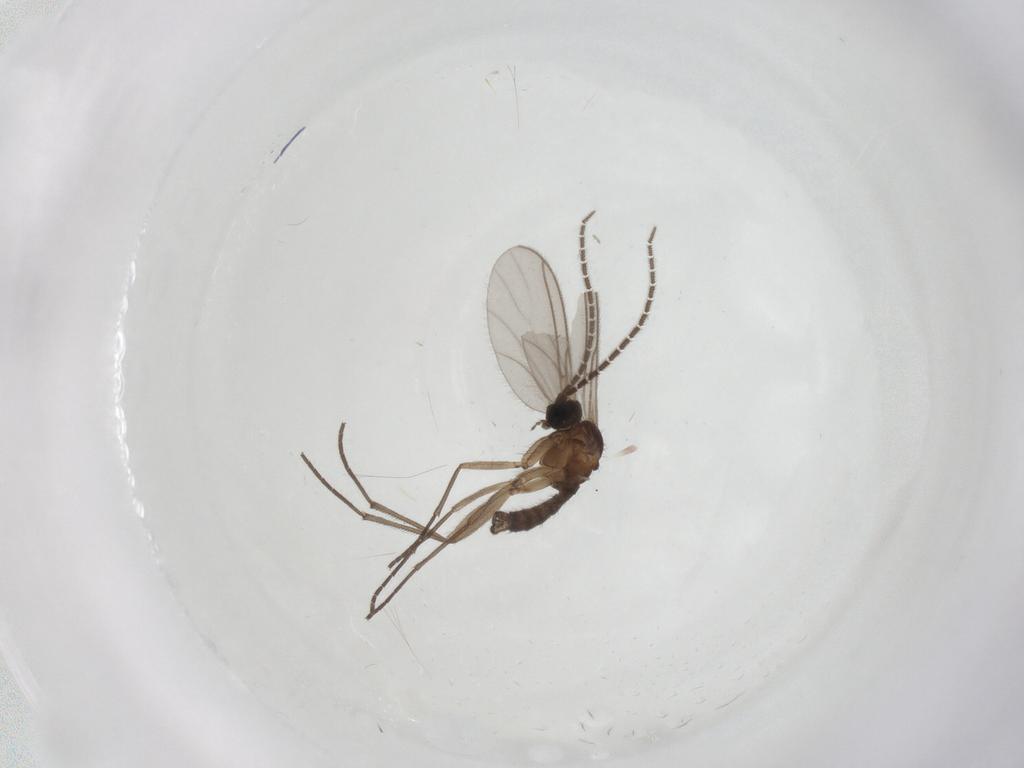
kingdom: Animalia
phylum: Arthropoda
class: Insecta
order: Diptera
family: Sciaridae
